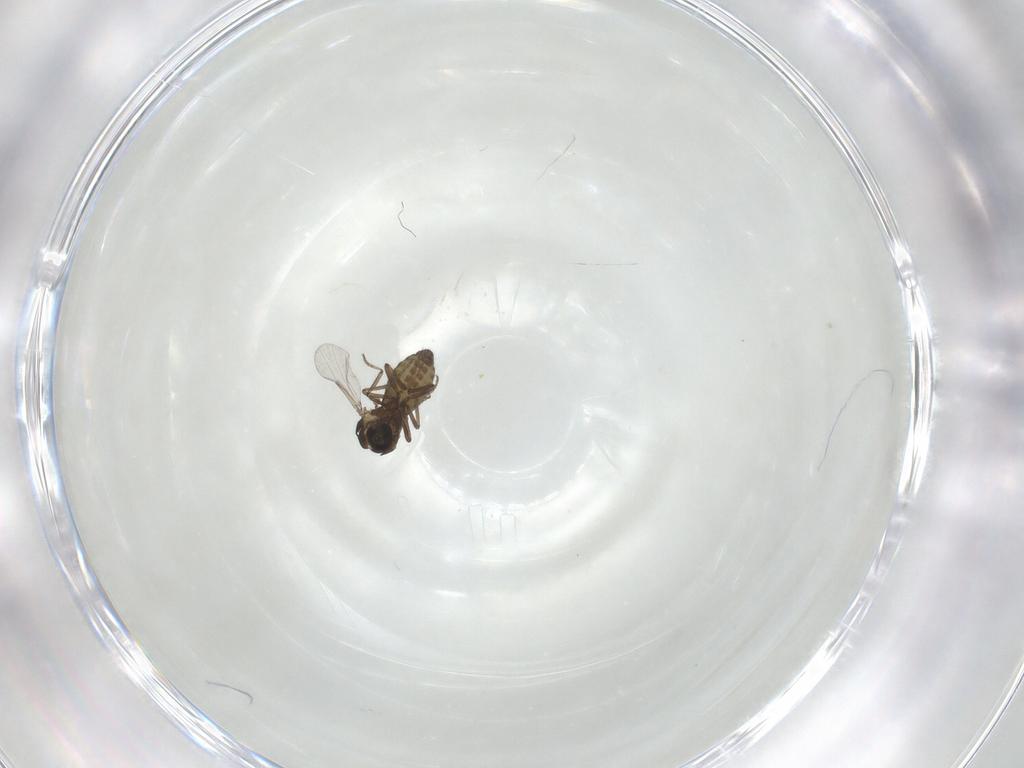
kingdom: Animalia
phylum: Arthropoda
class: Insecta
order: Diptera
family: Ceratopogonidae
